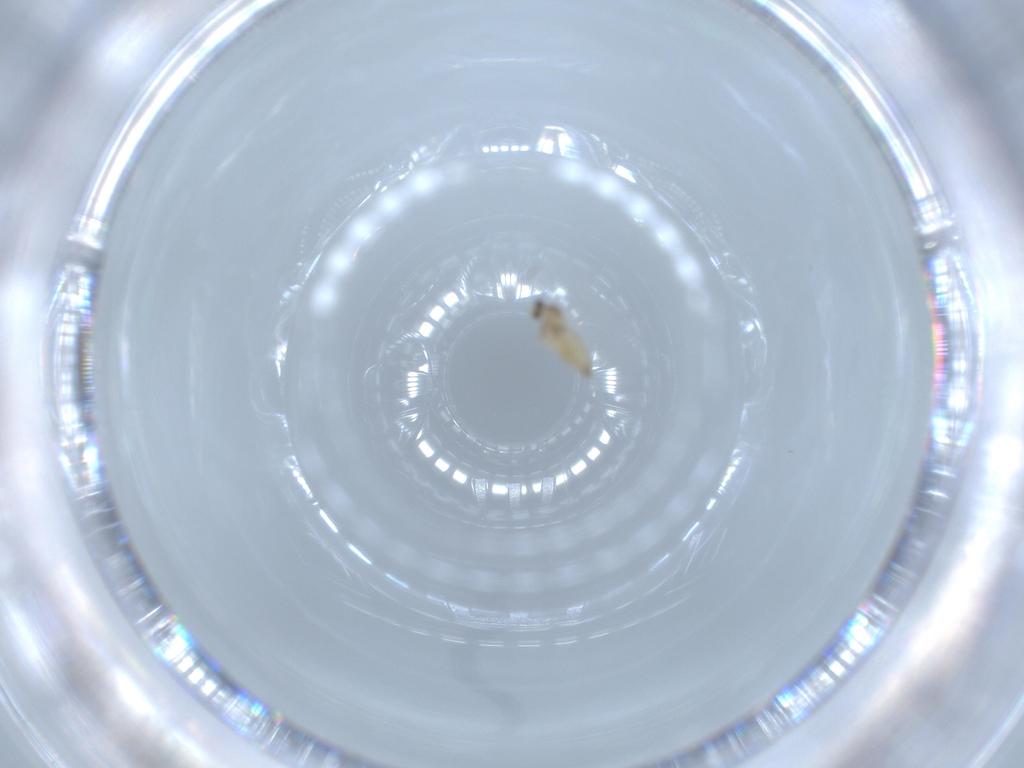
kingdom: Animalia
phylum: Arthropoda
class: Insecta
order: Diptera
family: Cecidomyiidae
